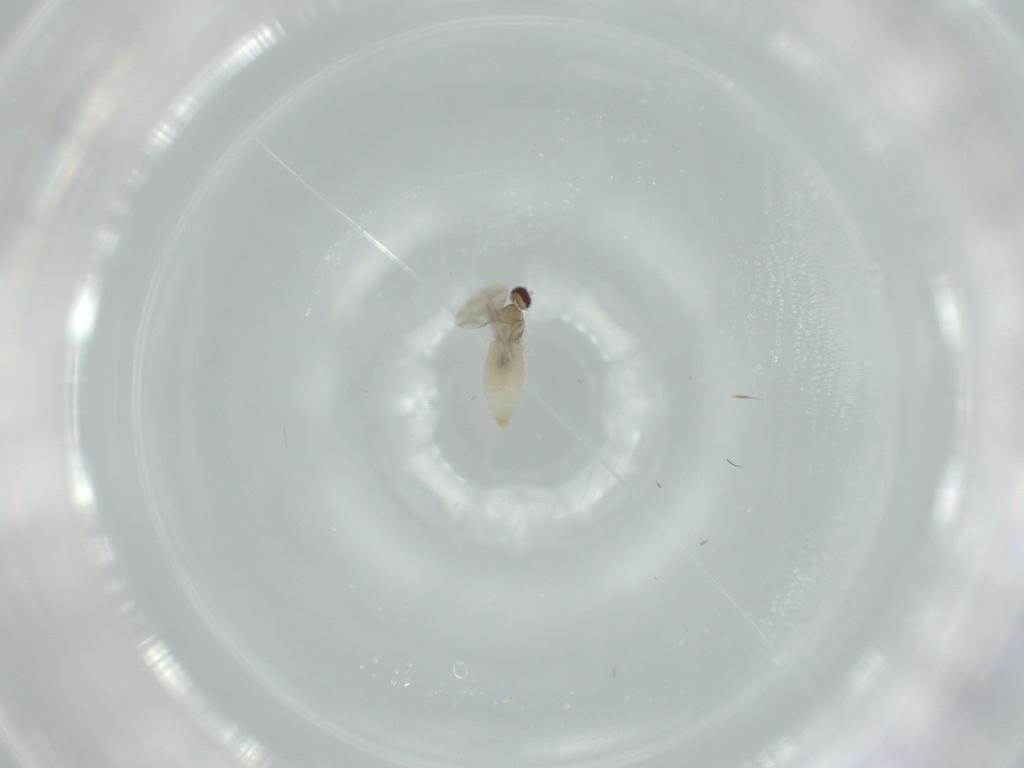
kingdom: Animalia
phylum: Arthropoda
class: Insecta
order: Diptera
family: Cecidomyiidae
